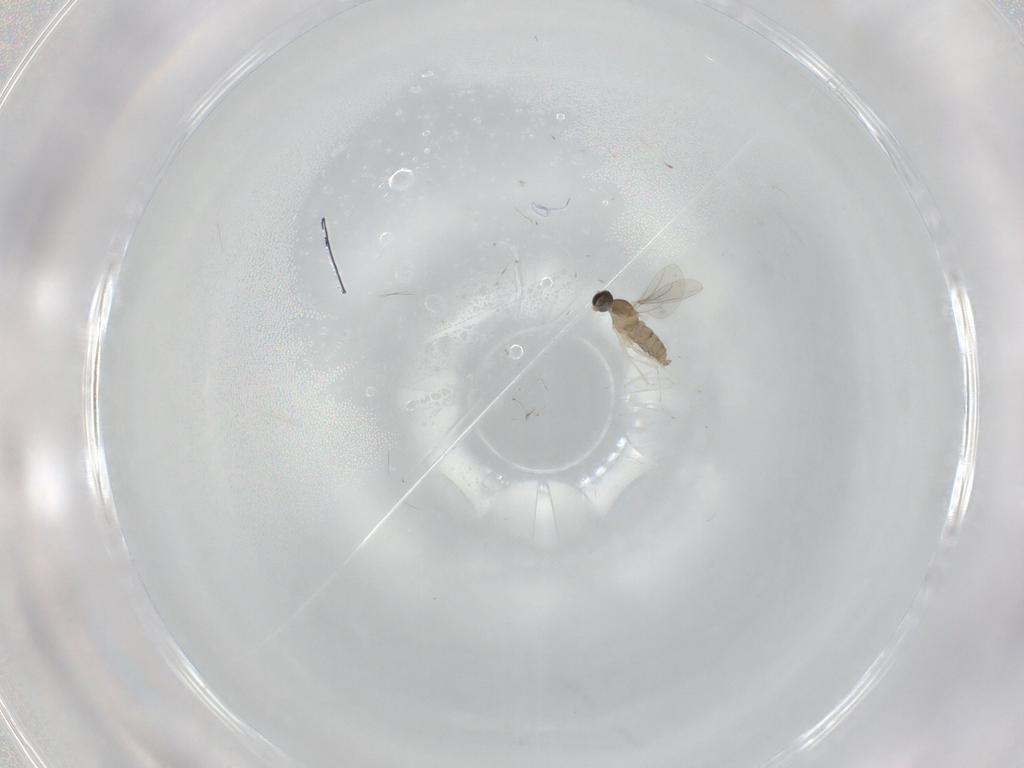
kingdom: Animalia
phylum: Arthropoda
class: Insecta
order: Diptera
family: Cecidomyiidae
